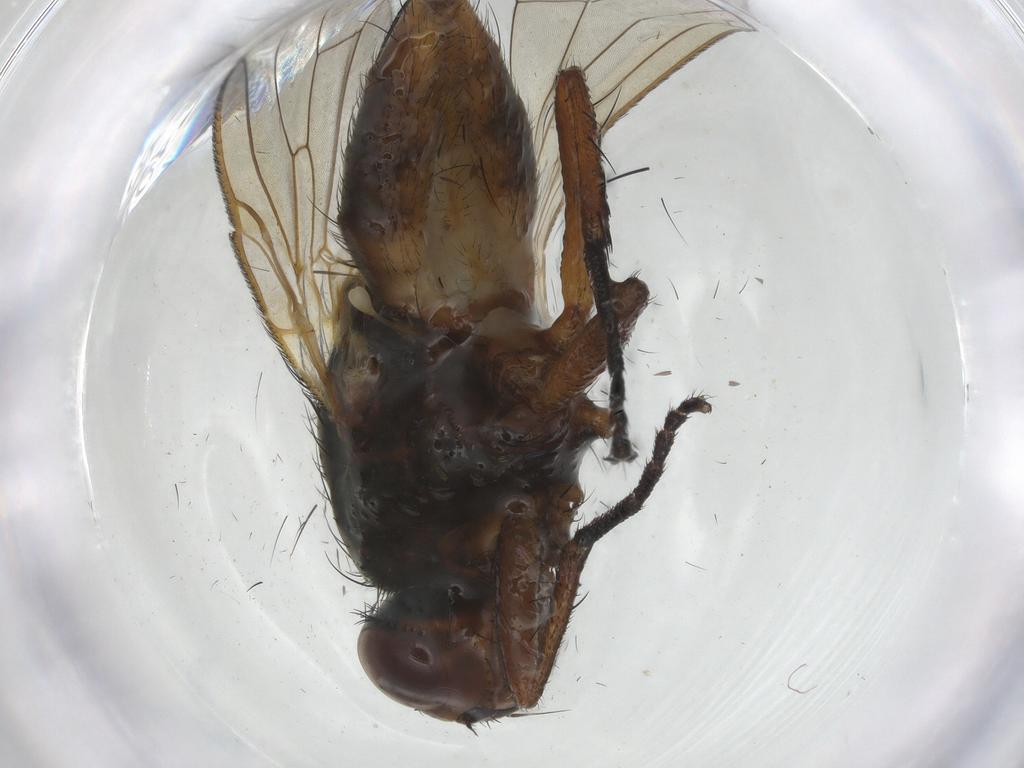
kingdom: Animalia
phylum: Arthropoda
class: Insecta
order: Diptera
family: Anthomyiidae
